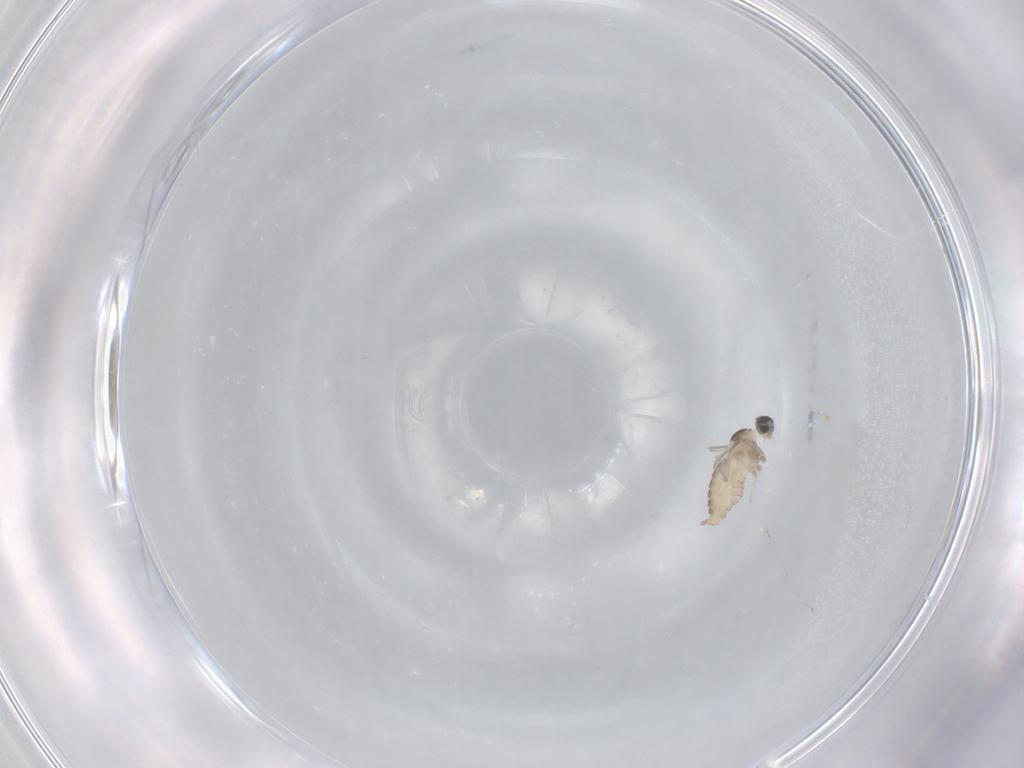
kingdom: Animalia
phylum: Arthropoda
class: Insecta
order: Diptera
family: Cecidomyiidae
